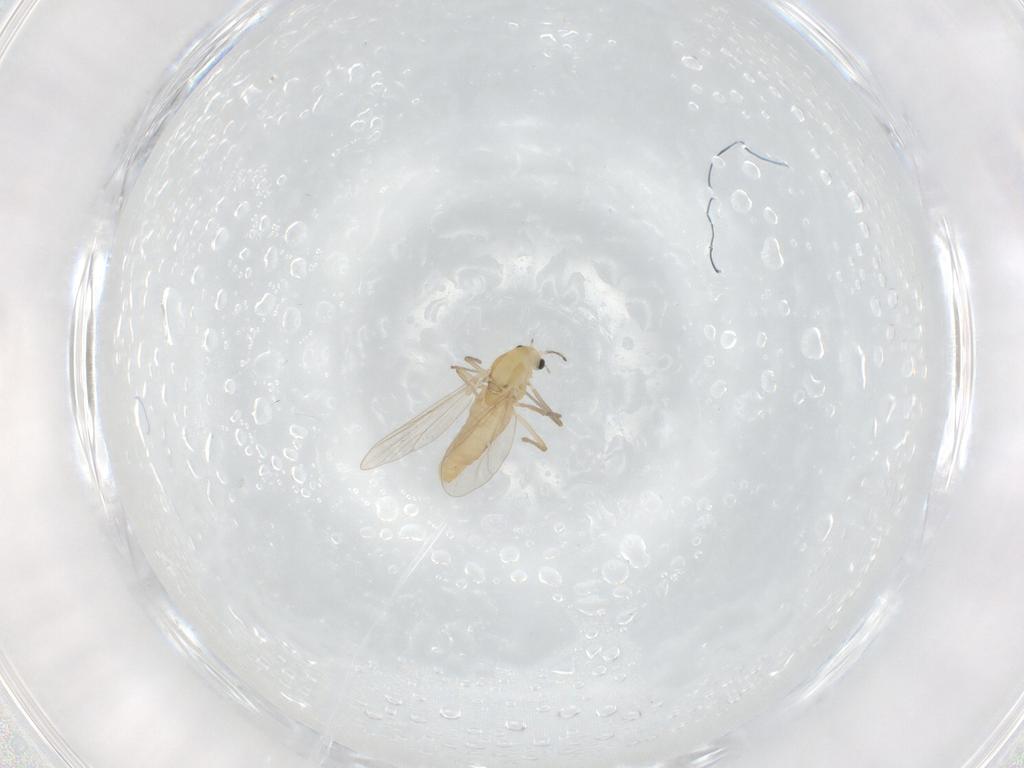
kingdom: Animalia
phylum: Arthropoda
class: Insecta
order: Diptera
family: Chironomidae
